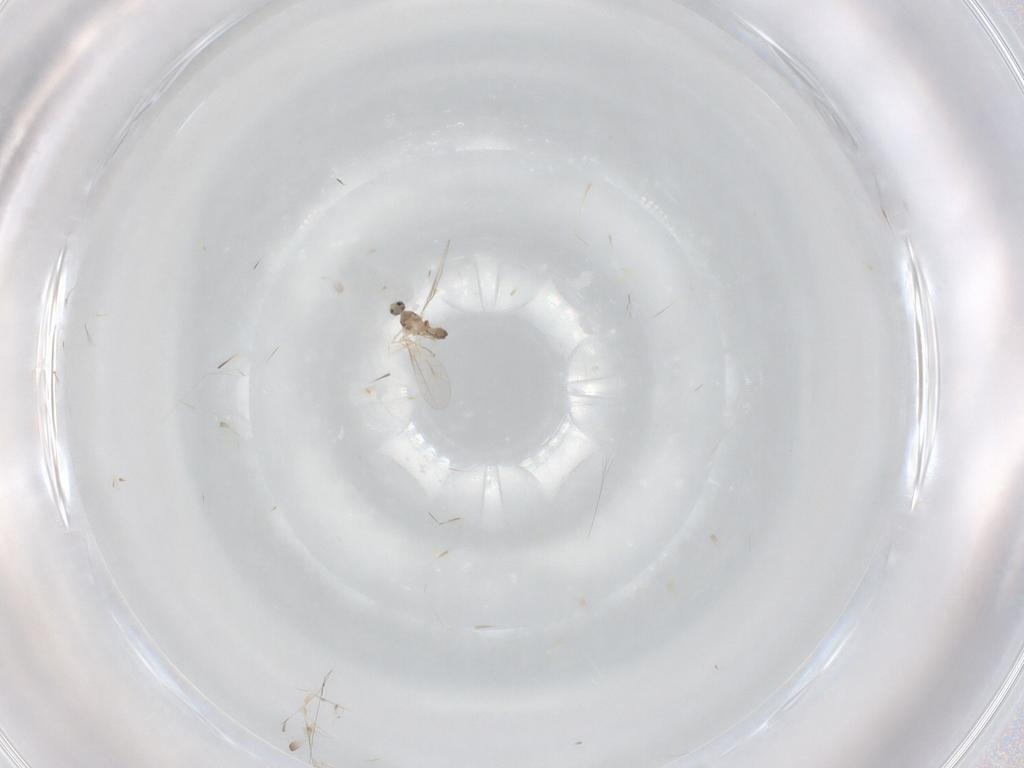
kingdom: Animalia
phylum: Arthropoda
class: Insecta
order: Diptera
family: Cecidomyiidae
